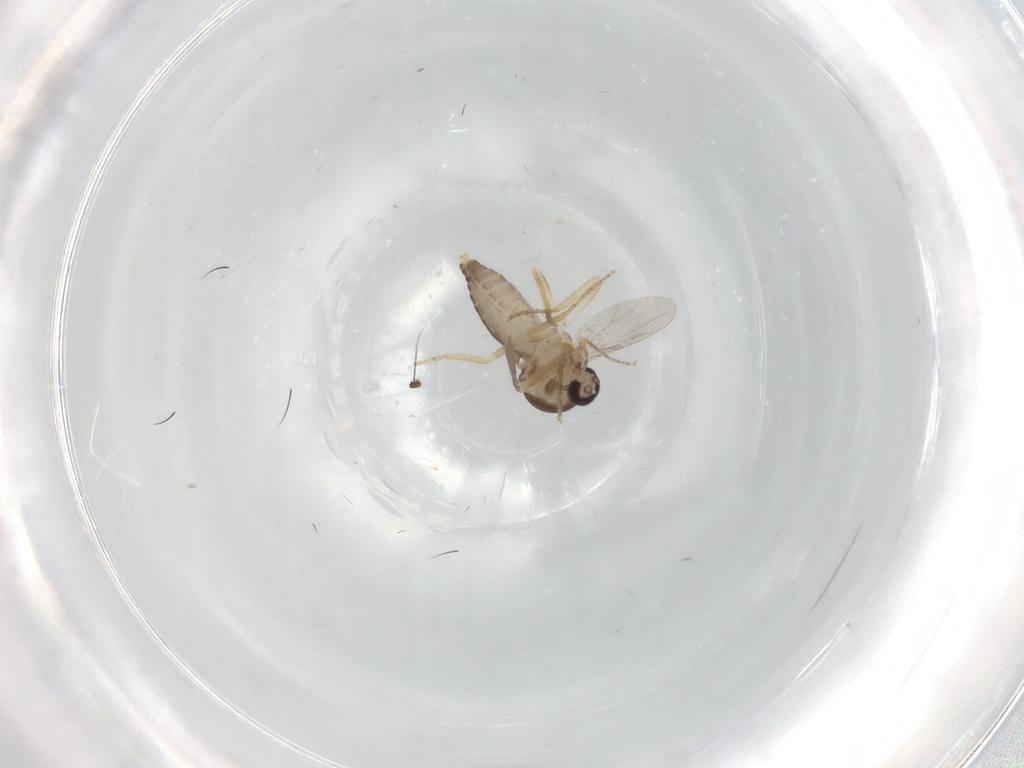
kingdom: Animalia
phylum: Arthropoda
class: Insecta
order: Diptera
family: Ceratopogonidae
